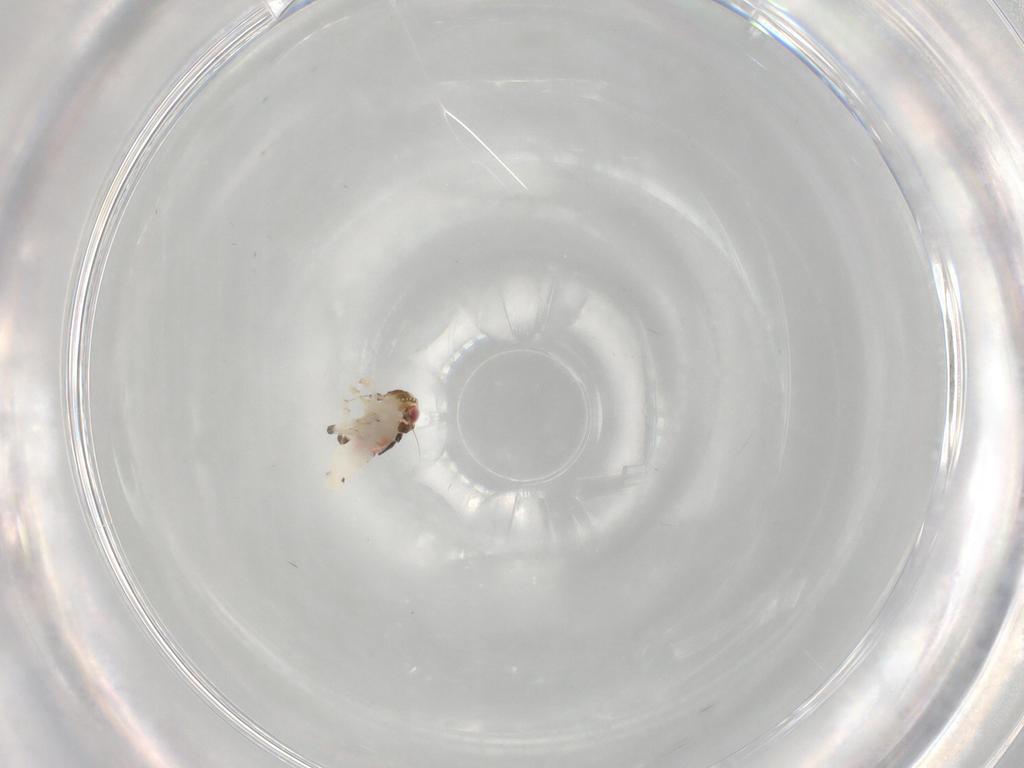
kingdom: Animalia
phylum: Arthropoda
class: Insecta
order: Hemiptera
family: Nogodinidae
